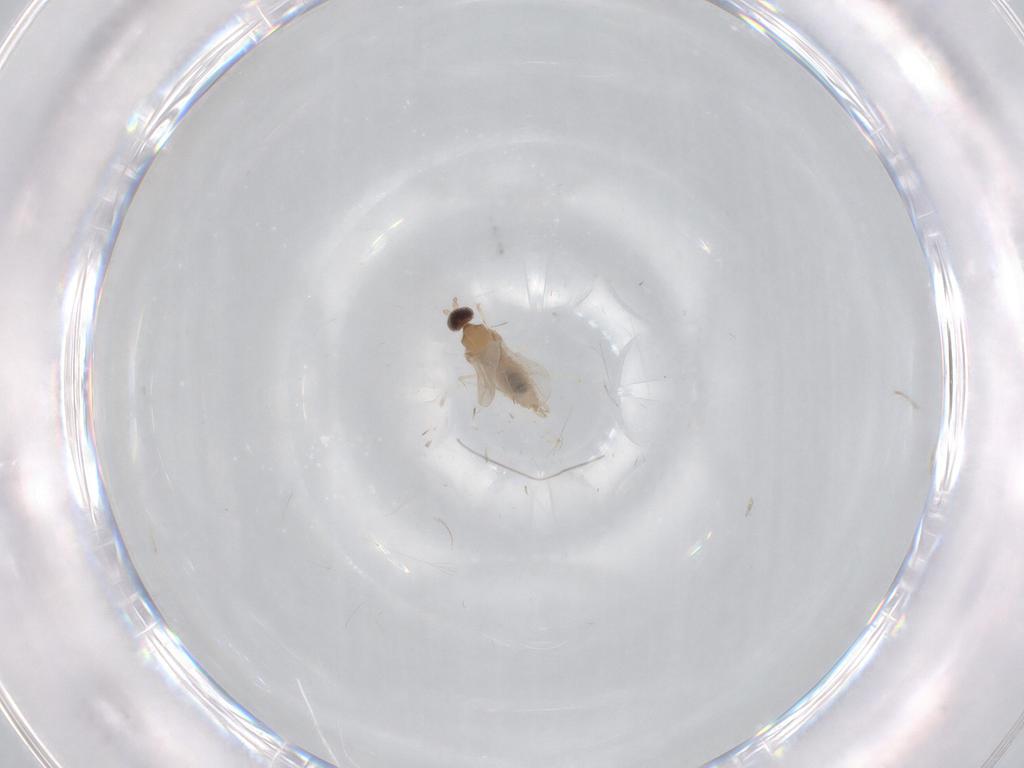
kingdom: Animalia
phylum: Arthropoda
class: Insecta
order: Diptera
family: Cecidomyiidae
